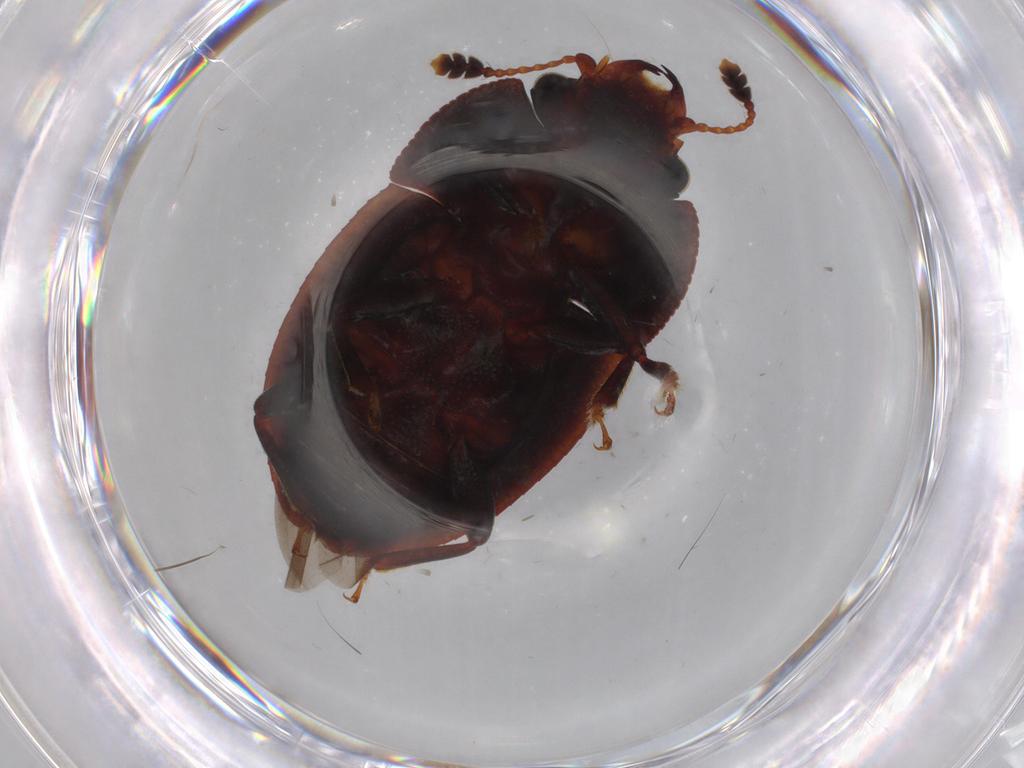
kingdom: Animalia
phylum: Arthropoda
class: Insecta
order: Coleoptera
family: Nitidulidae
